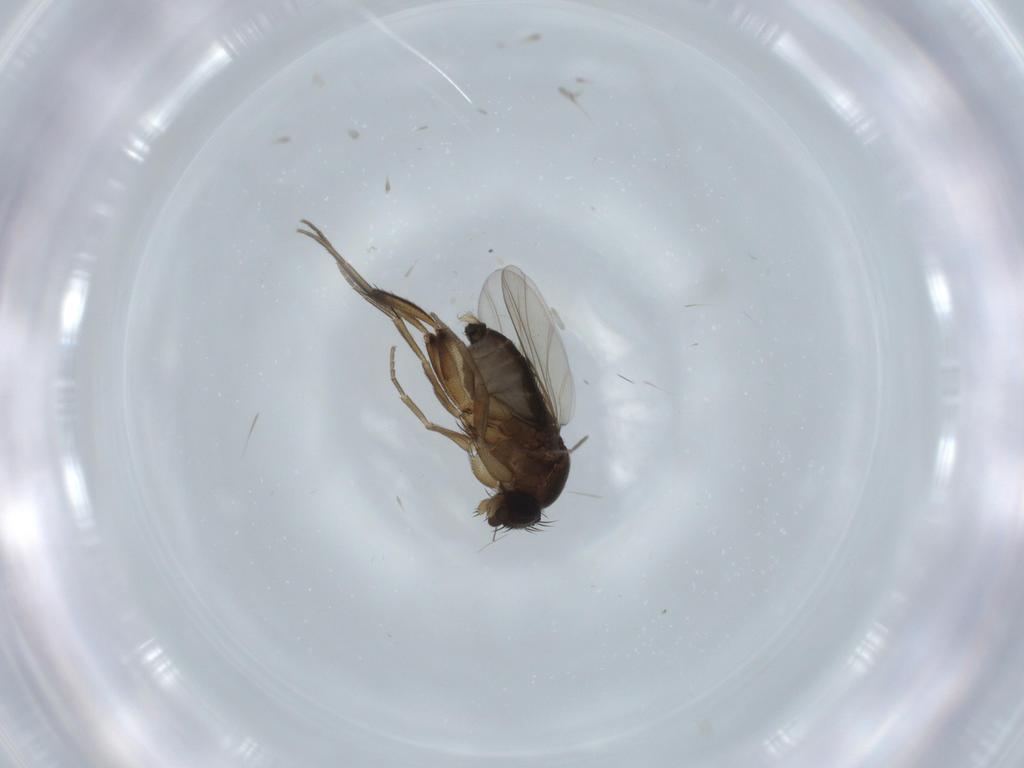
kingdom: Animalia
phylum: Arthropoda
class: Insecta
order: Diptera
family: Phoridae
